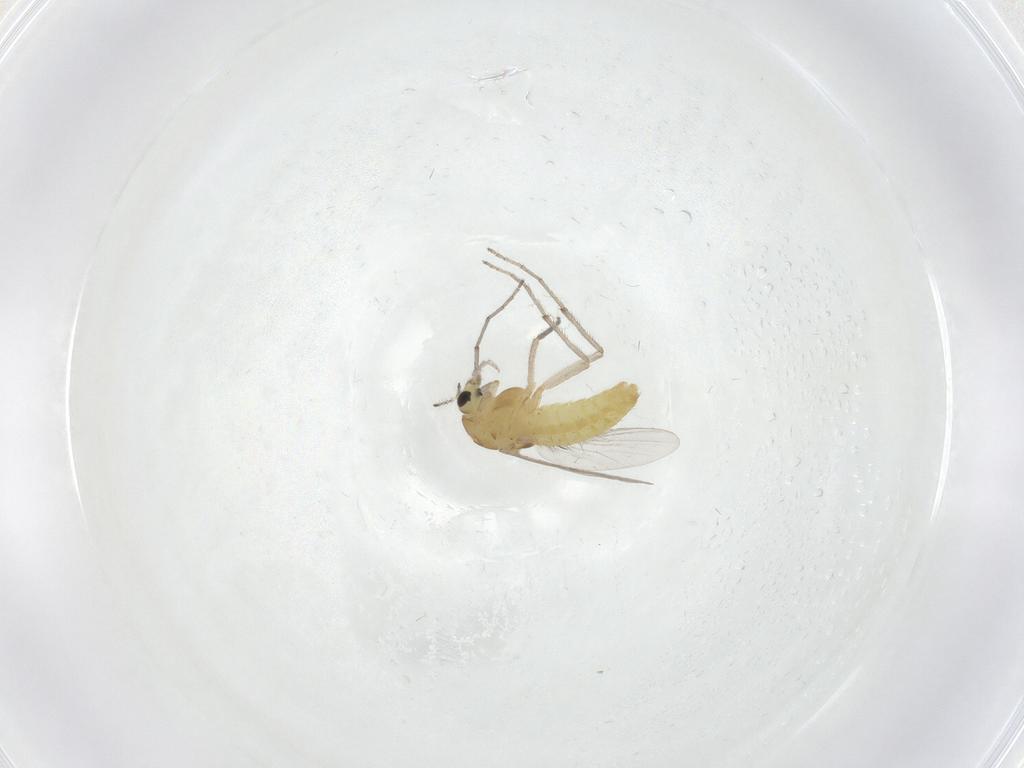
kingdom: Animalia
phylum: Arthropoda
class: Insecta
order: Diptera
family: Limoniidae
